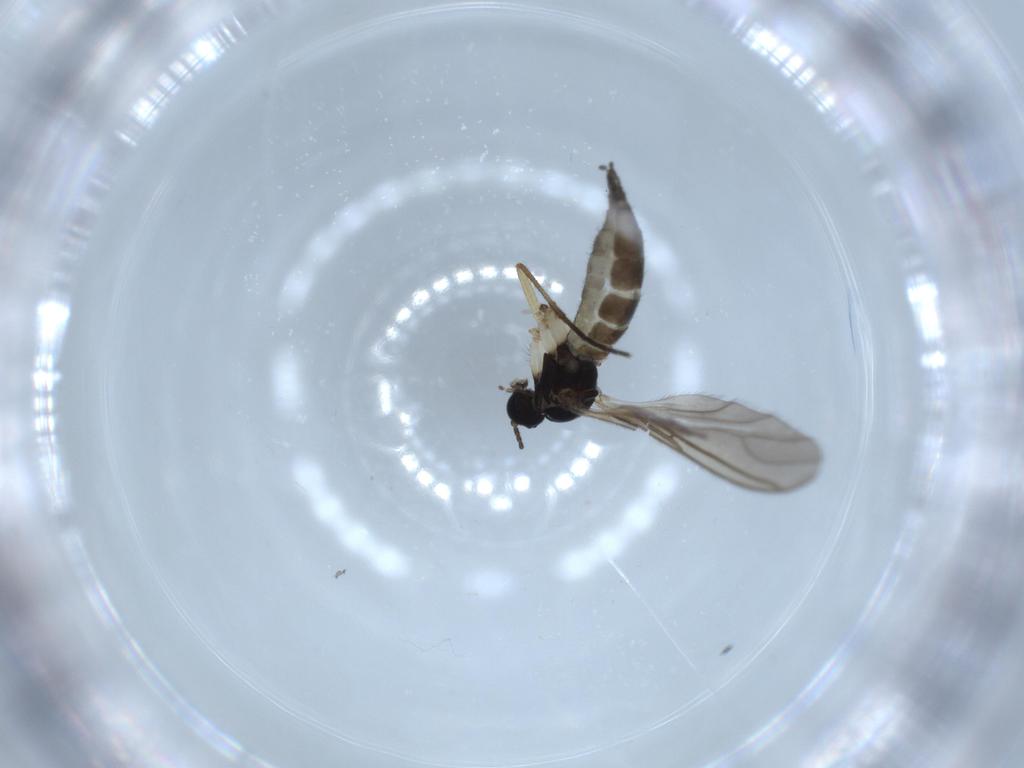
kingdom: Animalia
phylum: Arthropoda
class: Insecta
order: Diptera
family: Sciaridae
